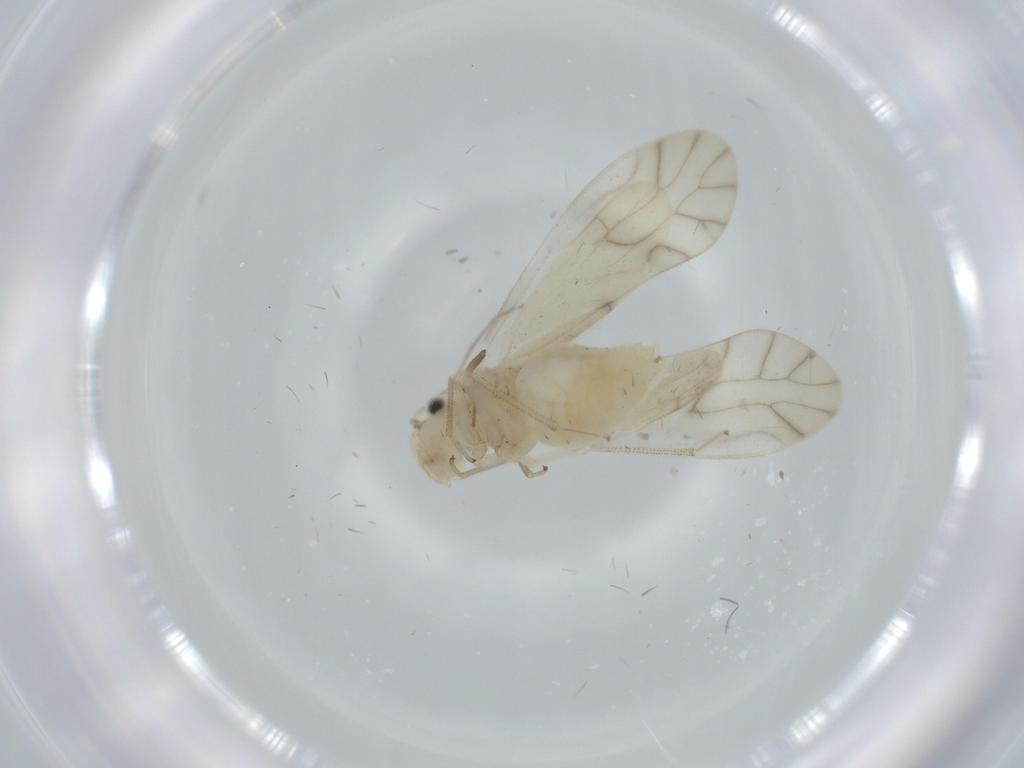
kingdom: Animalia
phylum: Arthropoda
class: Insecta
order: Psocodea
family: Caeciliusidae
